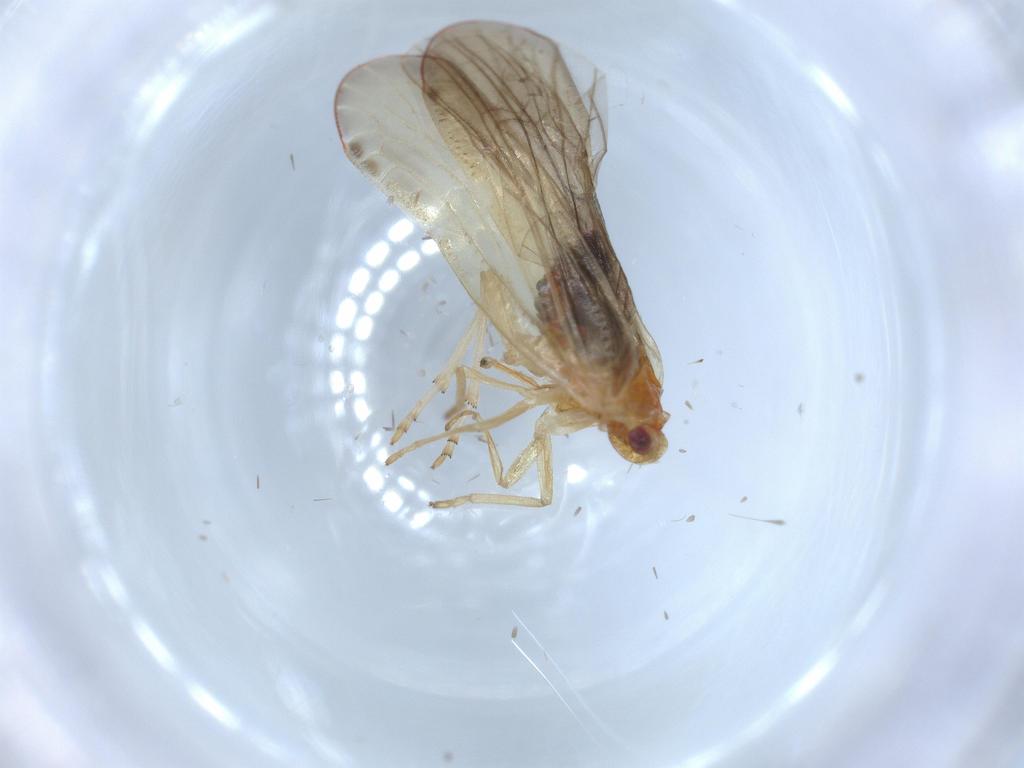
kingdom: Animalia
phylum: Arthropoda
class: Insecta
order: Hemiptera
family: Derbidae
